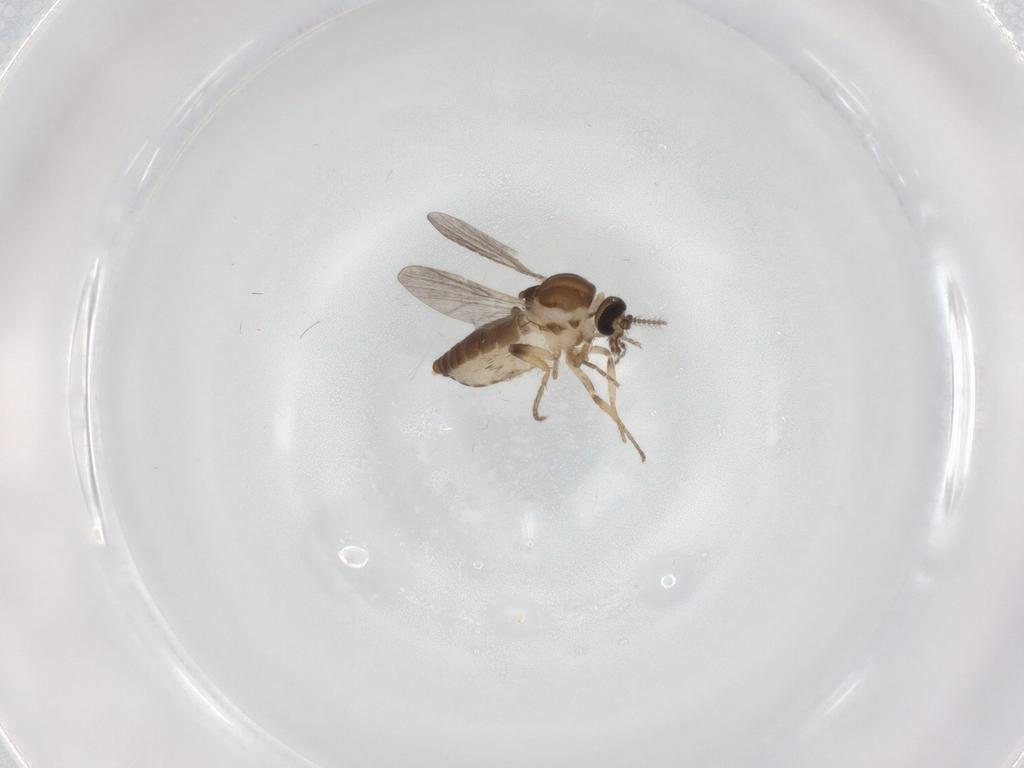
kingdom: Animalia
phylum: Arthropoda
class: Insecta
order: Diptera
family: Ceratopogonidae
